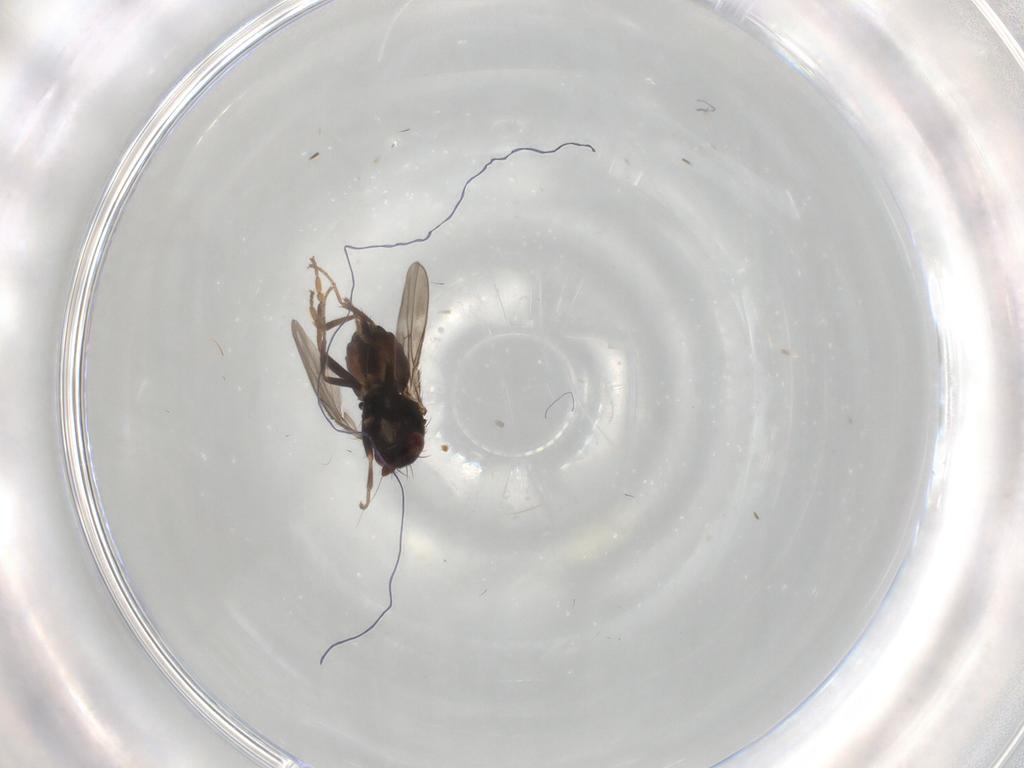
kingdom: Animalia
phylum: Arthropoda
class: Insecta
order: Diptera
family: Sphaeroceridae
